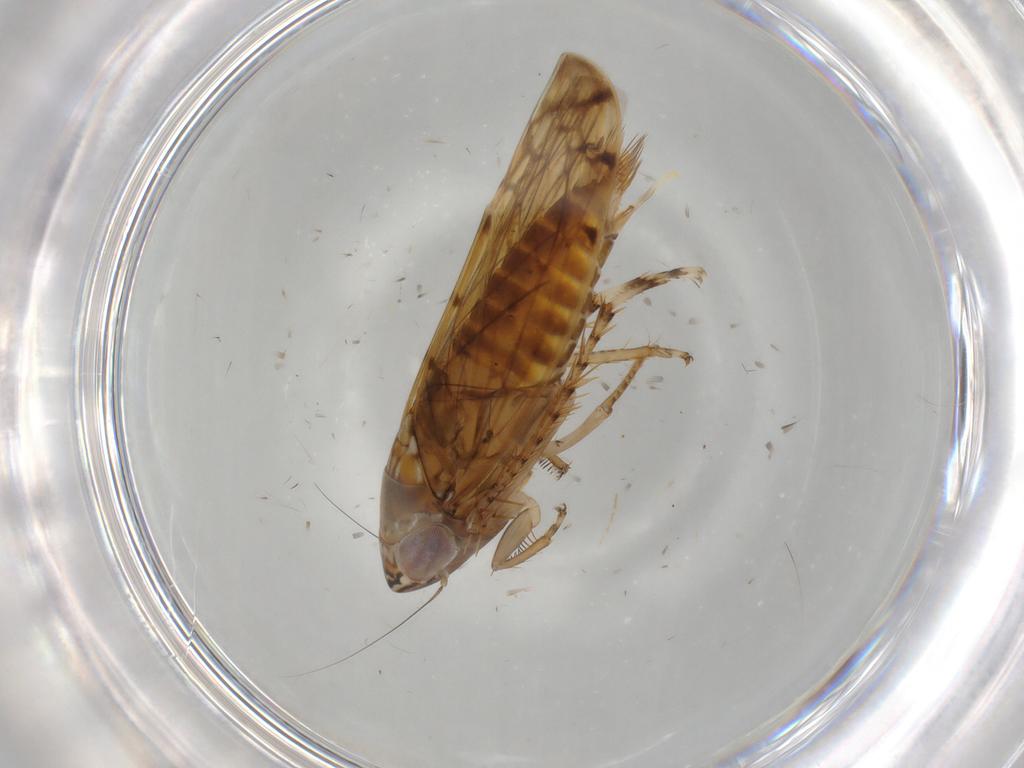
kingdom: Animalia
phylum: Arthropoda
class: Insecta
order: Hemiptera
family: Cicadellidae
